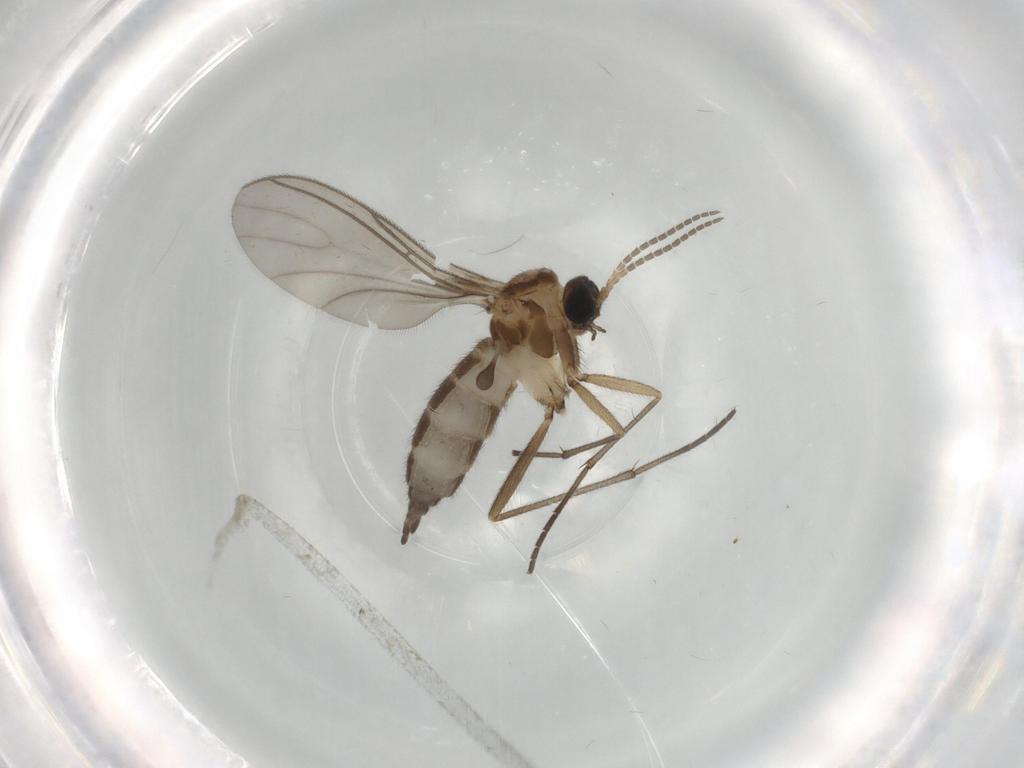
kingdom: Animalia
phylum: Arthropoda
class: Insecta
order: Diptera
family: Sciaridae
